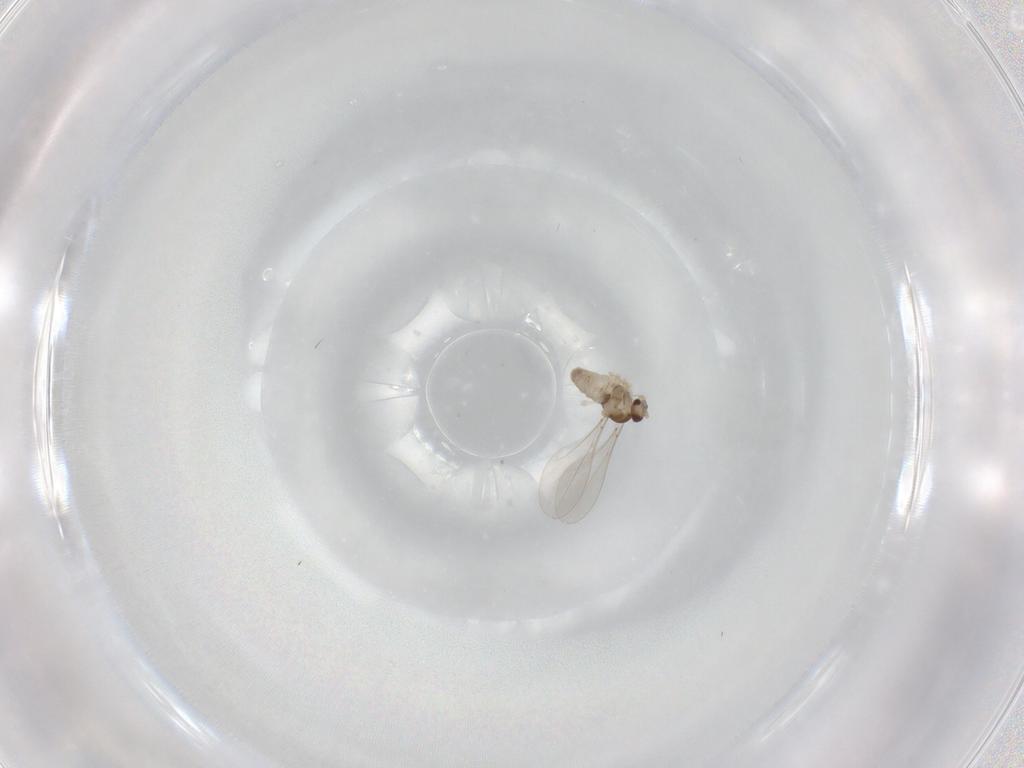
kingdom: Animalia
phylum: Arthropoda
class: Insecta
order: Diptera
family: Cecidomyiidae
